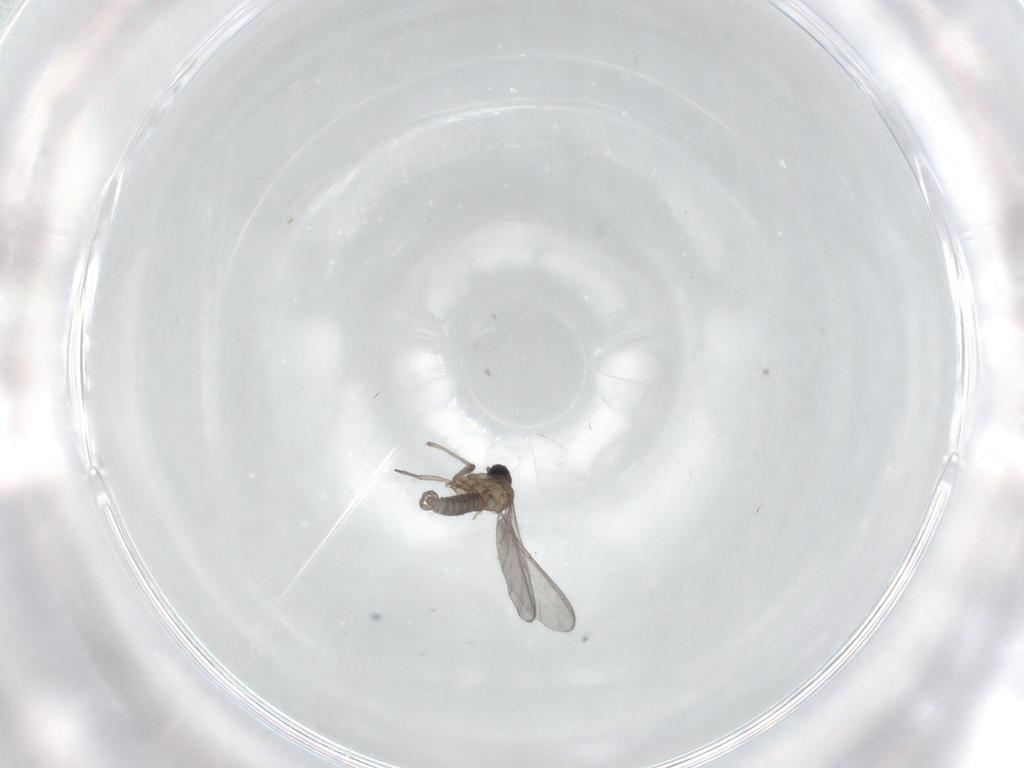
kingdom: Animalia
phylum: Arthropoda
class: Insecta
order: Diptera
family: Sciaridae
